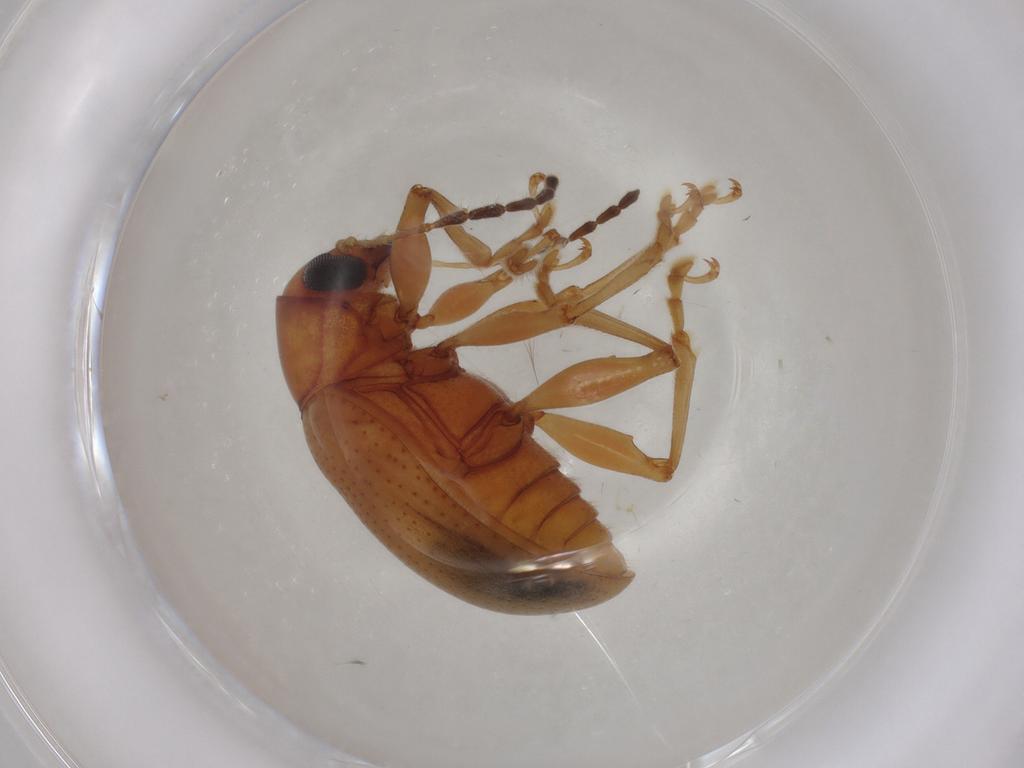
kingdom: Animalia
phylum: Arthropoda
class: Insecta
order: Coleoptera
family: Chrysomelidae
